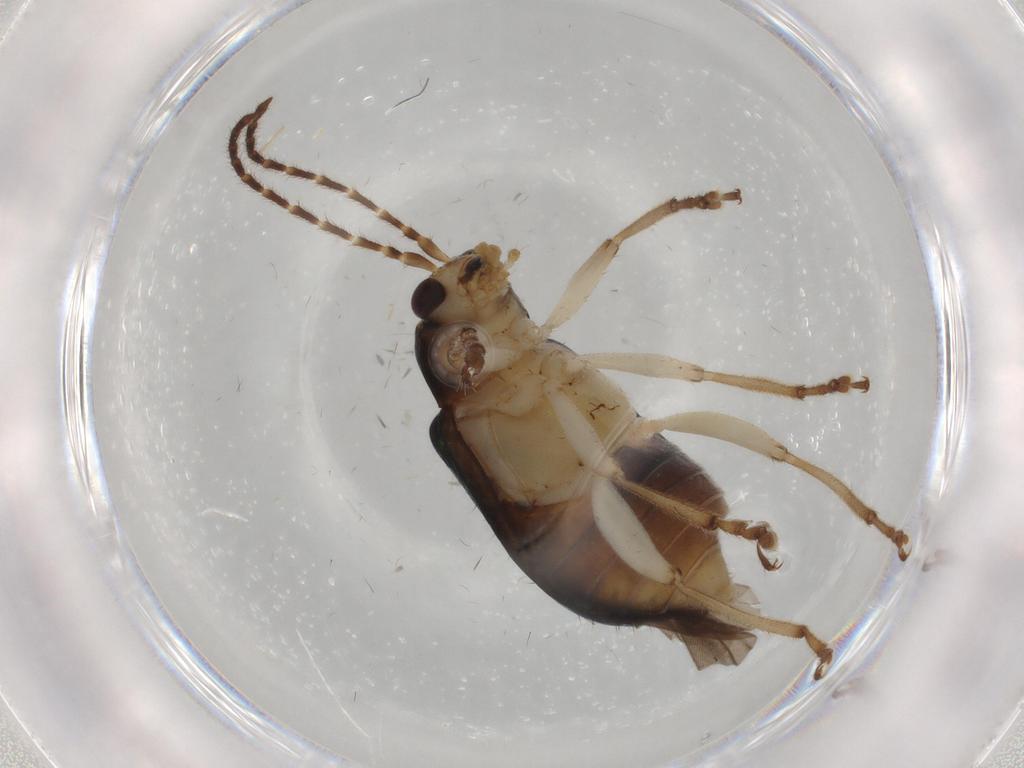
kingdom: Animalia
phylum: Arthropoda
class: Insecta
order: Coleoptera
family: Chrysomelidae
